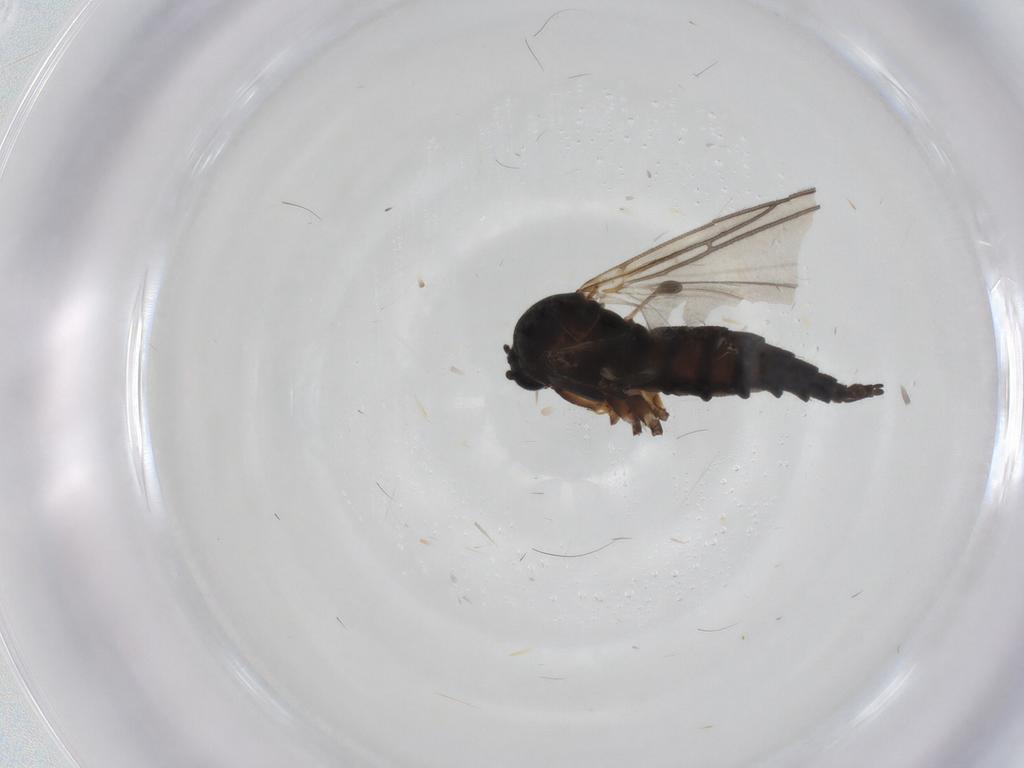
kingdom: Animalia
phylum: Arthropoda
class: Insecta
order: Diptera
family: Sciaridae
